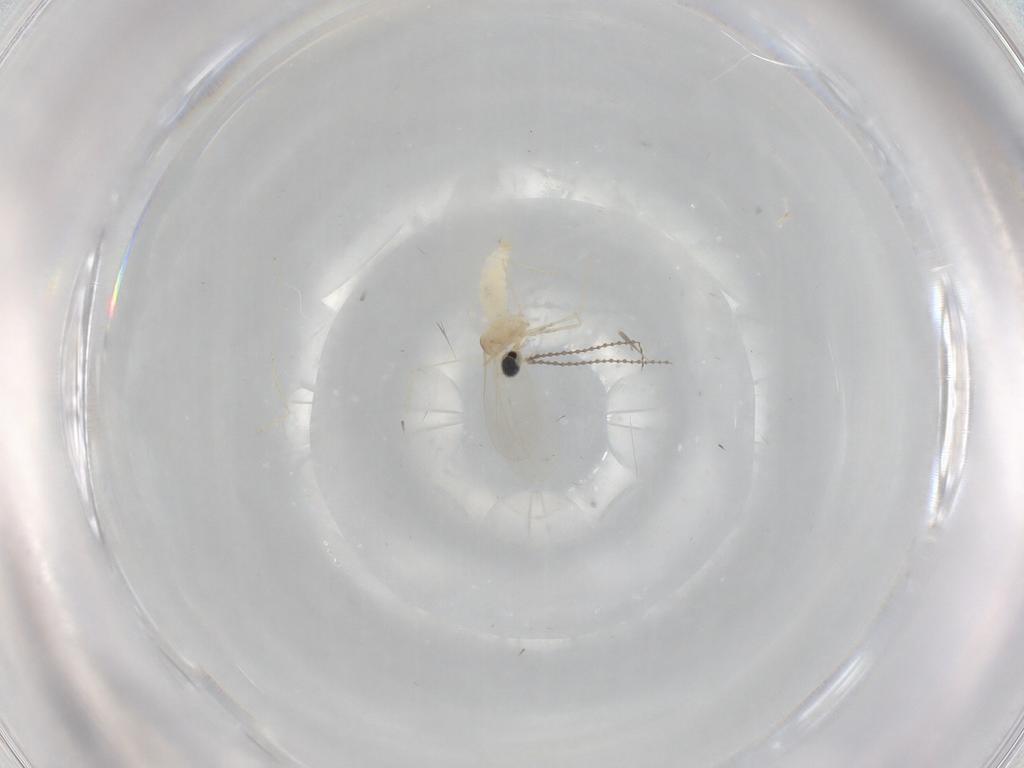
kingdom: Animalia
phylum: Arthropoda
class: Insecta
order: Diptera
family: Cecidomyiidae
